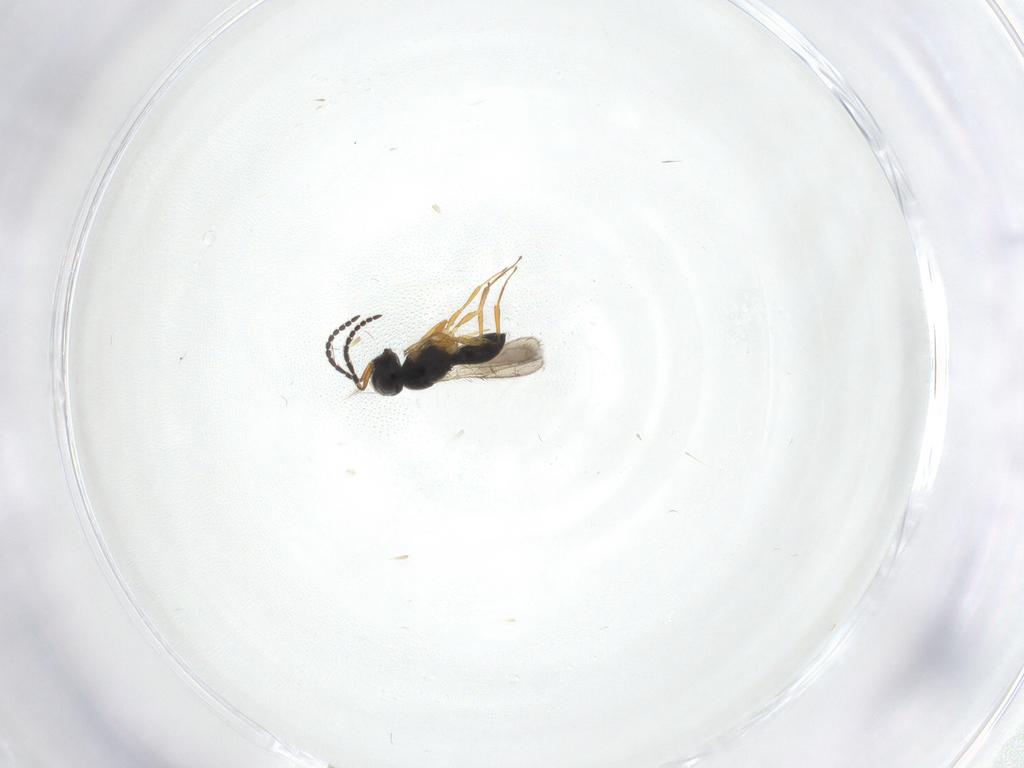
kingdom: Animalia
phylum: Arthropoda
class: Insecta
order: Hymenoptera
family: Scelionidae
